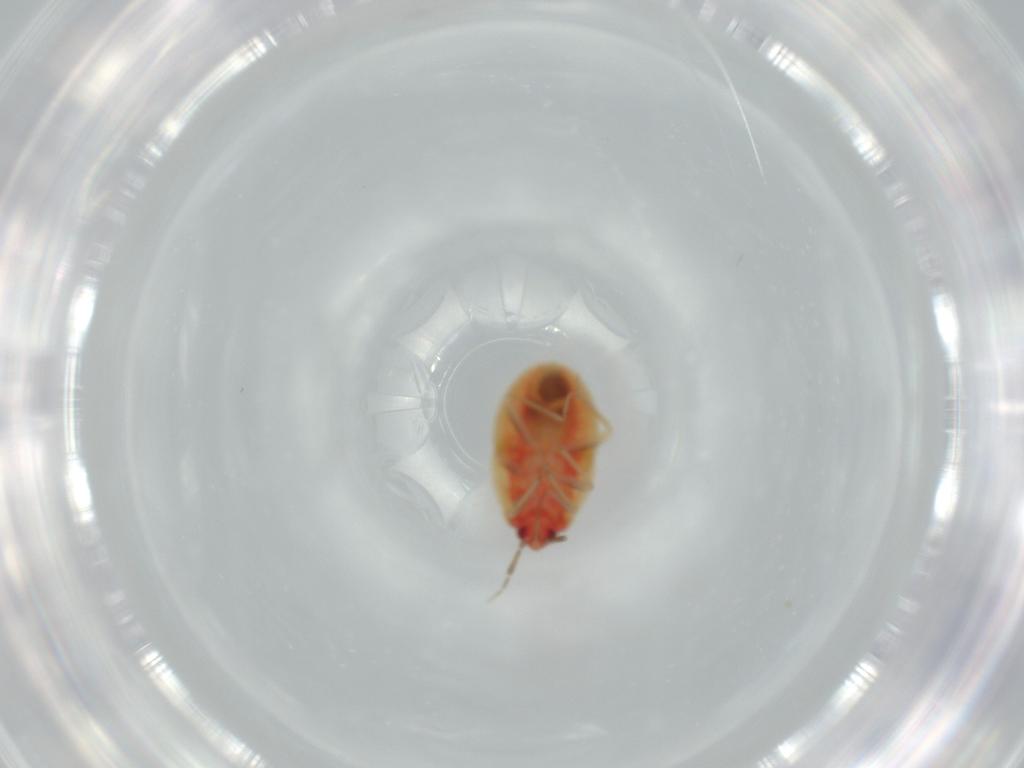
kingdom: Animalia
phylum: Arthropoda
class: Insecta
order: Hemiptera
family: Anthocoridae
